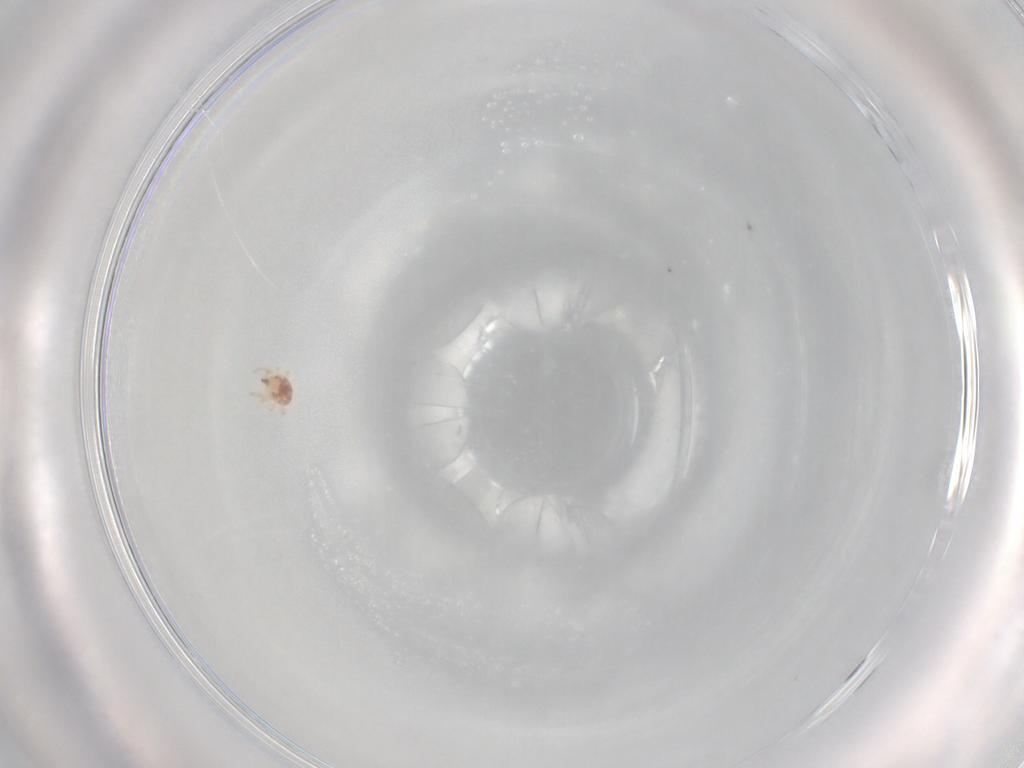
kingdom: Animalia
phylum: Arthropoda
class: Arachnida
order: Mesostigmata
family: Phytoseiidae
